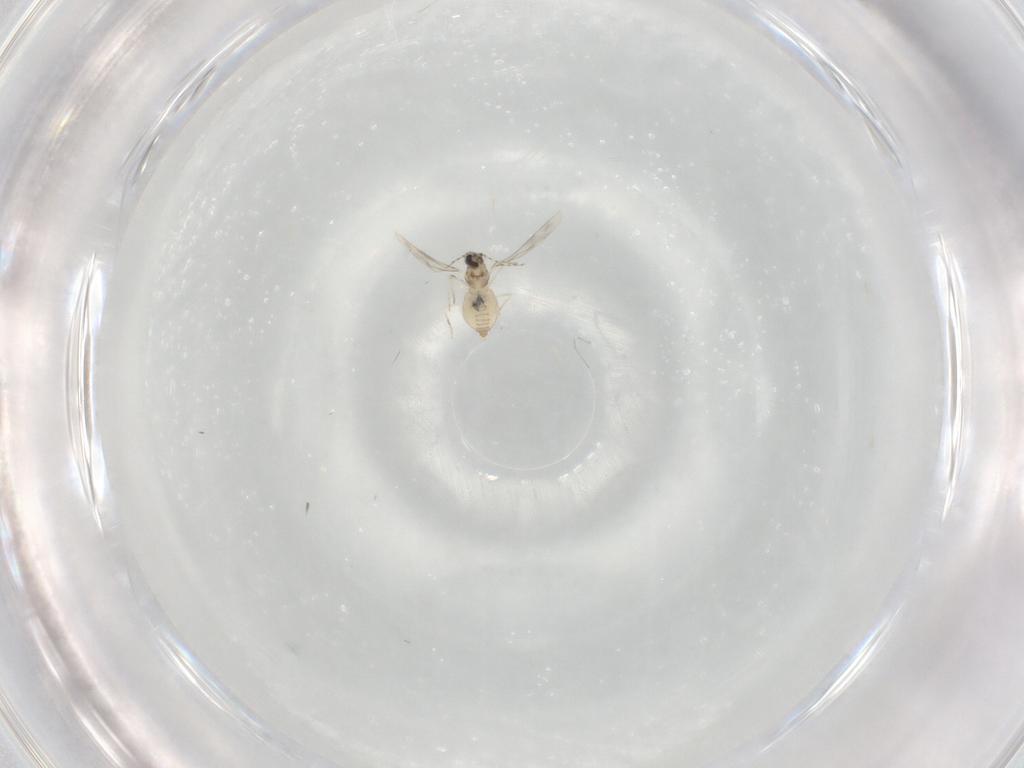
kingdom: Animalia
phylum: Arthropoda
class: Insecta
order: Diptera
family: Cecidomyiidae
